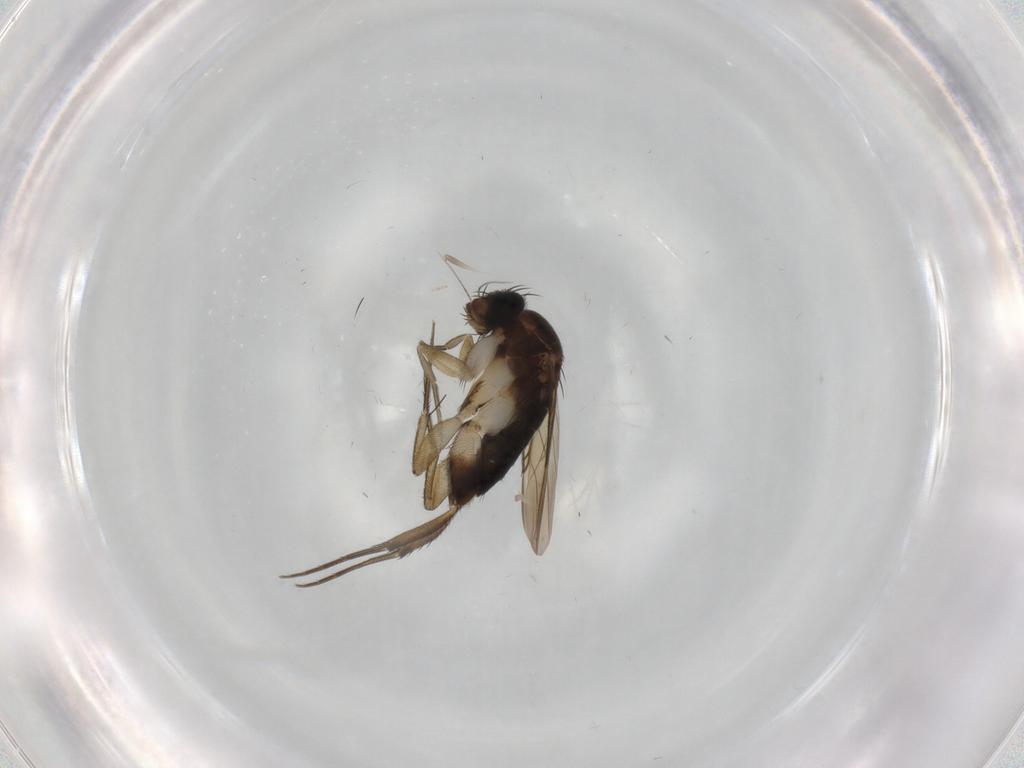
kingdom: Animalia
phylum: Arthropoda
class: Insecta
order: Diptera
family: Phoridae
